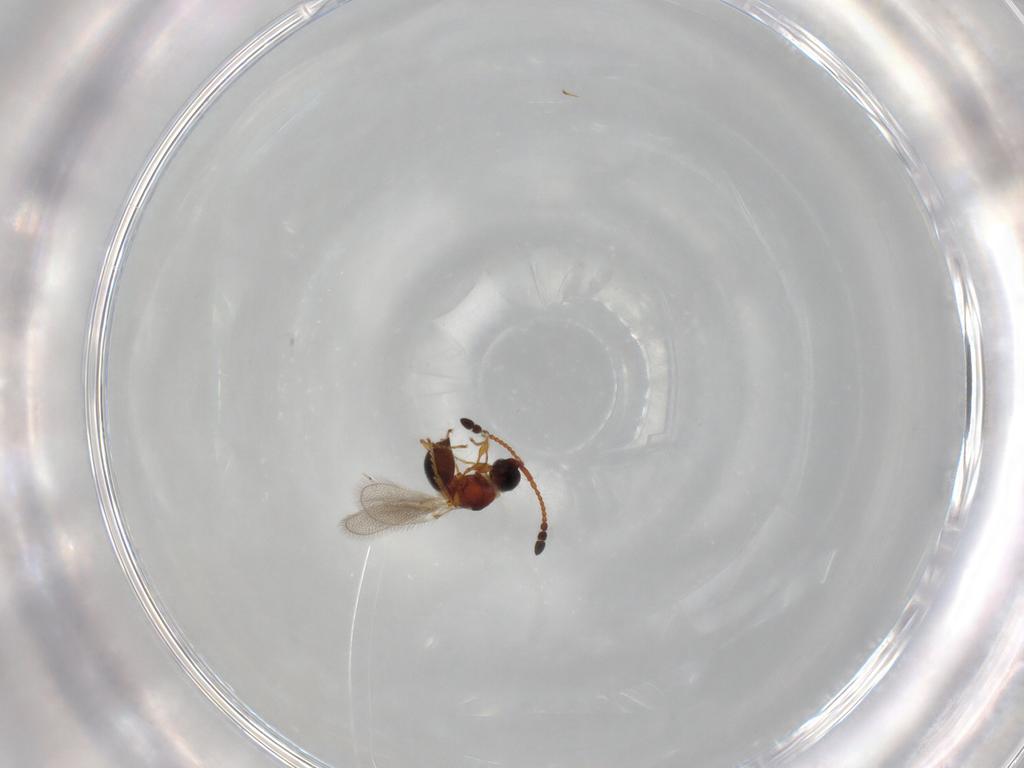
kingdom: Animalia
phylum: Arthropoda
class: Insecta
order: Hymenoptera
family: Diapriidae
